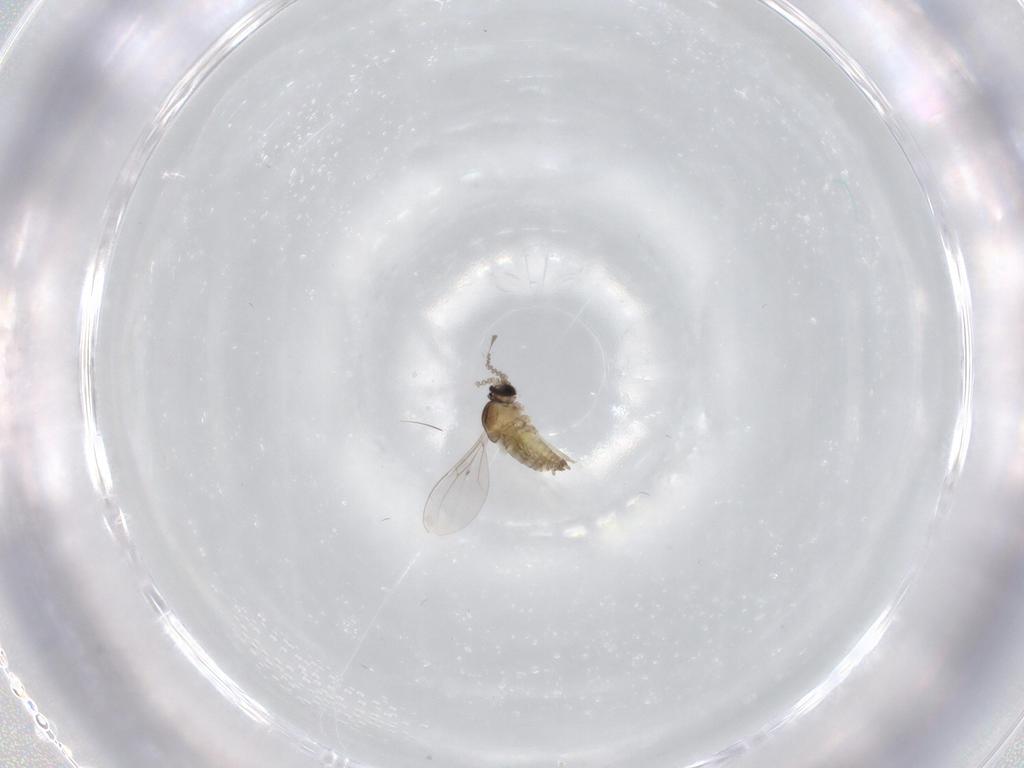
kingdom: Animalia
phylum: Arthropoda
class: Insecta
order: Diptera
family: Cecidomyiidae
